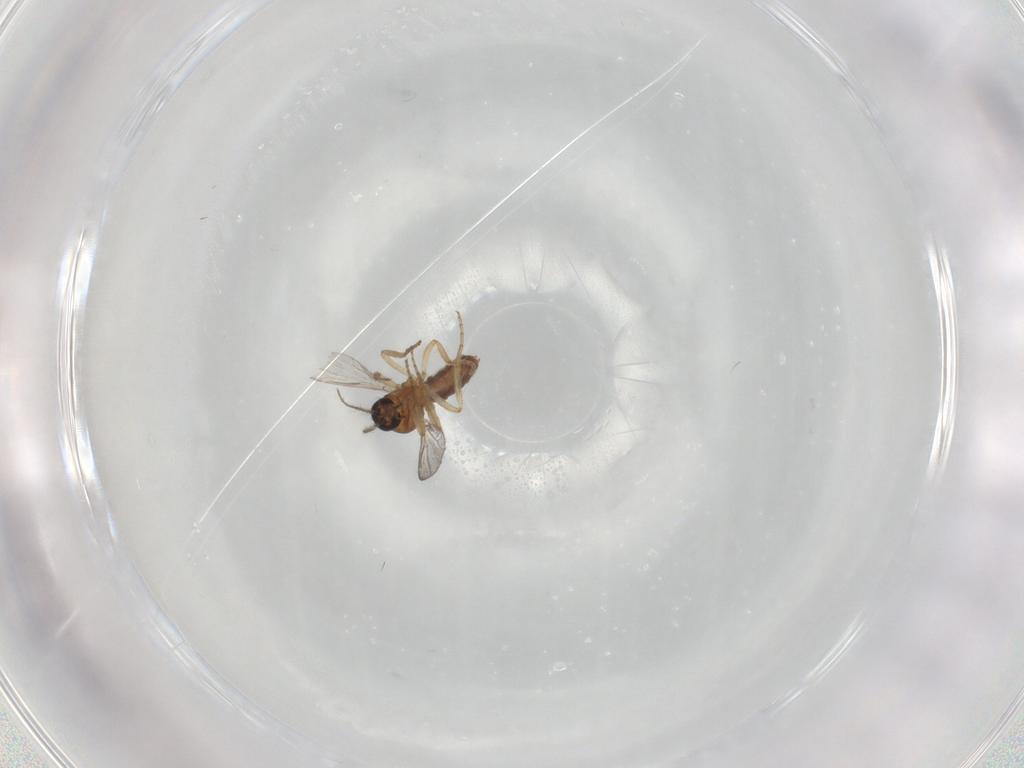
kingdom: Animalia
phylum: Arthropoda
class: Insecta
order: Diptera
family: Ceratopogonidae
